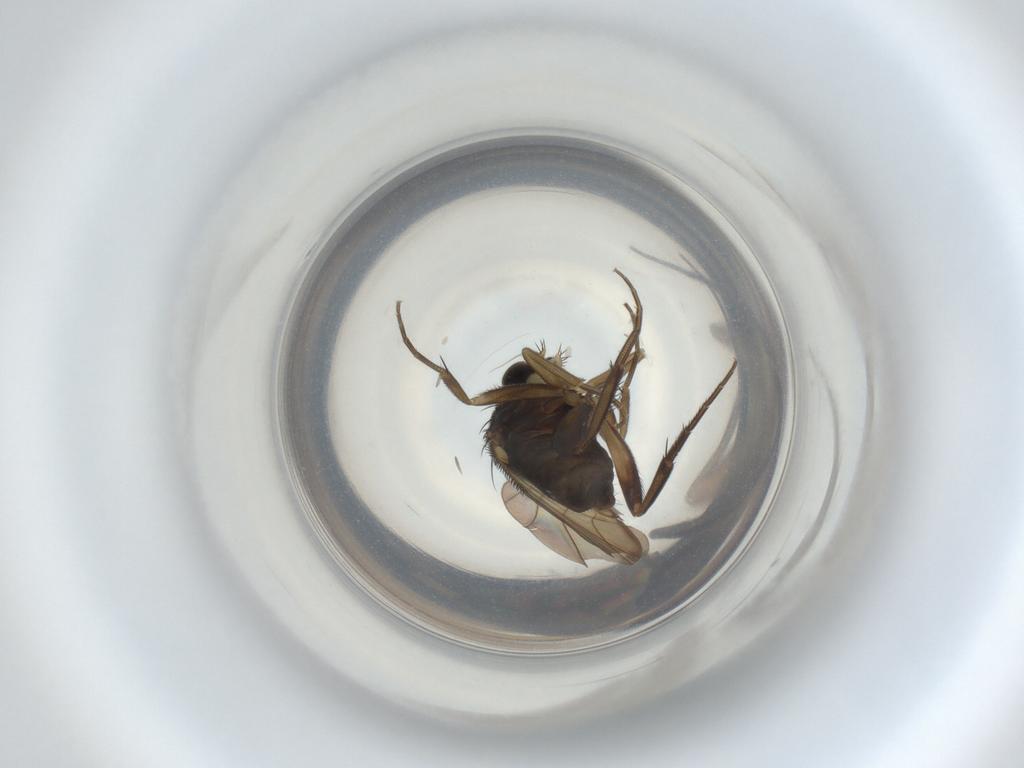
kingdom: Animalia
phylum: Arthropoda
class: Insecta
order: Diptera
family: Phoridae
